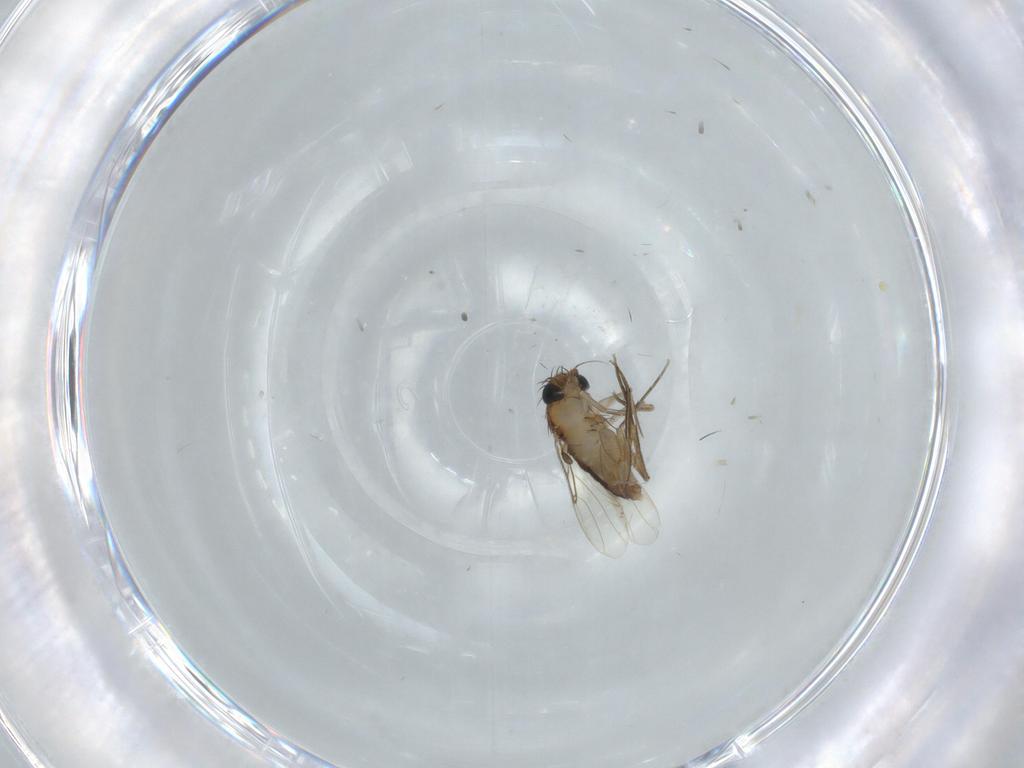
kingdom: Animalia
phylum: Arthropoda
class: Insecta
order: Diptera
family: Phoridae
